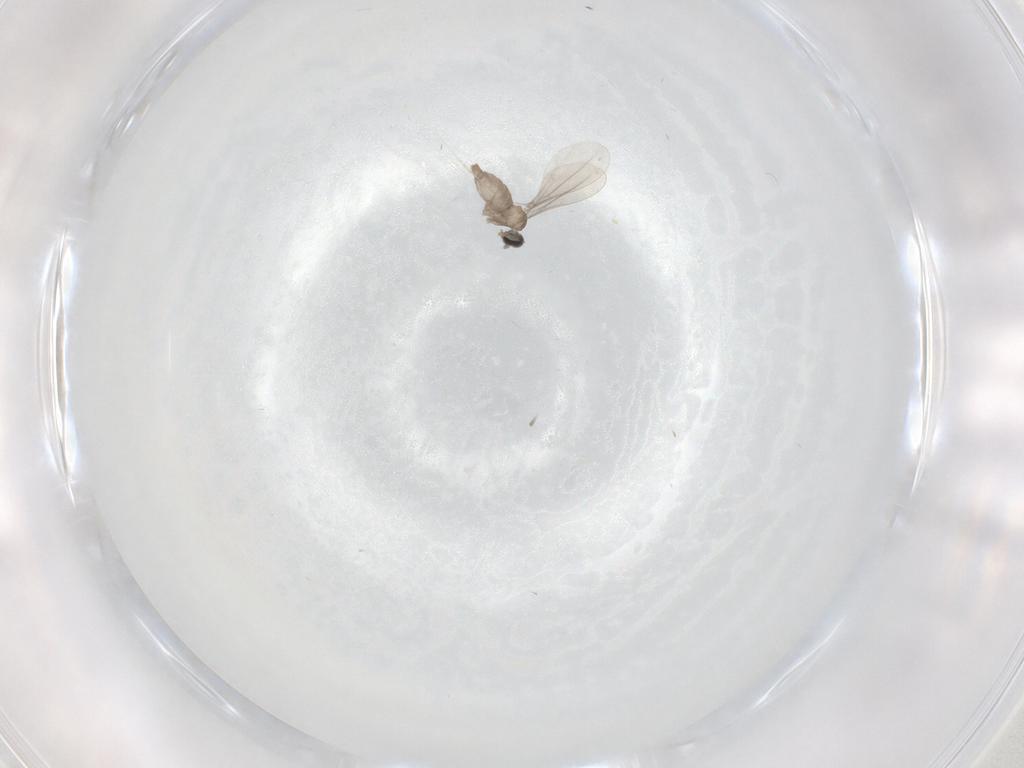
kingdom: Animalia
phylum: Arthropoda
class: Insecta
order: Diptera
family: Cecidomyiidae
